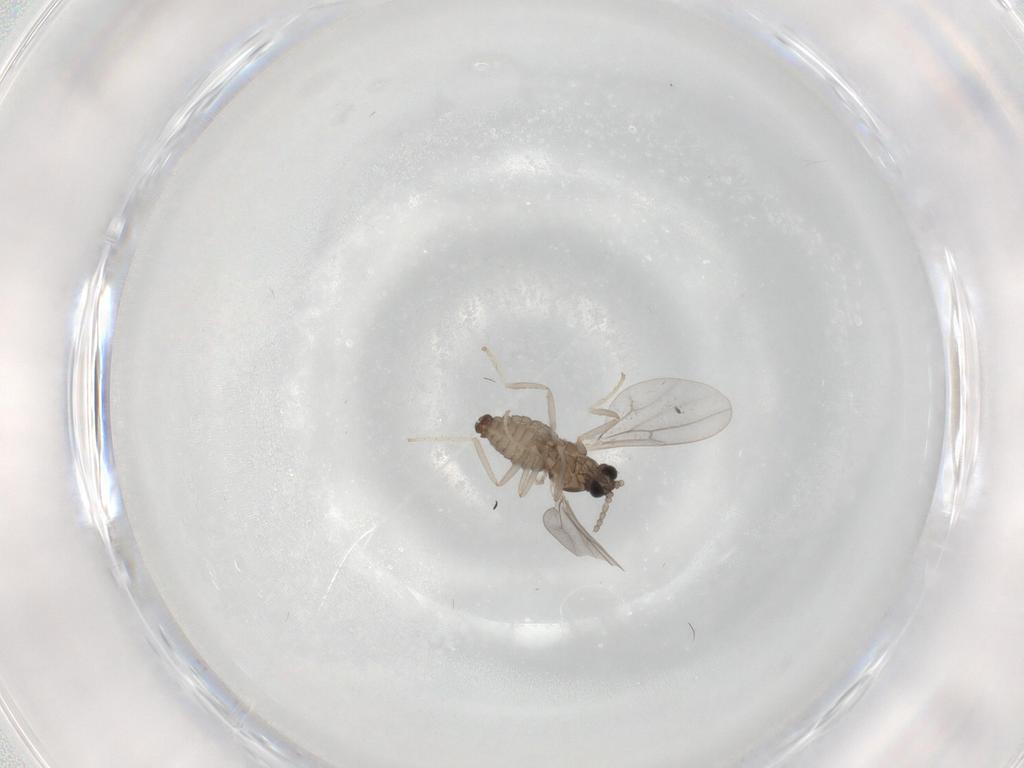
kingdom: Animalia
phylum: Arthropoda
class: Insecta
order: Diptera
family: Cecidomyiidae
